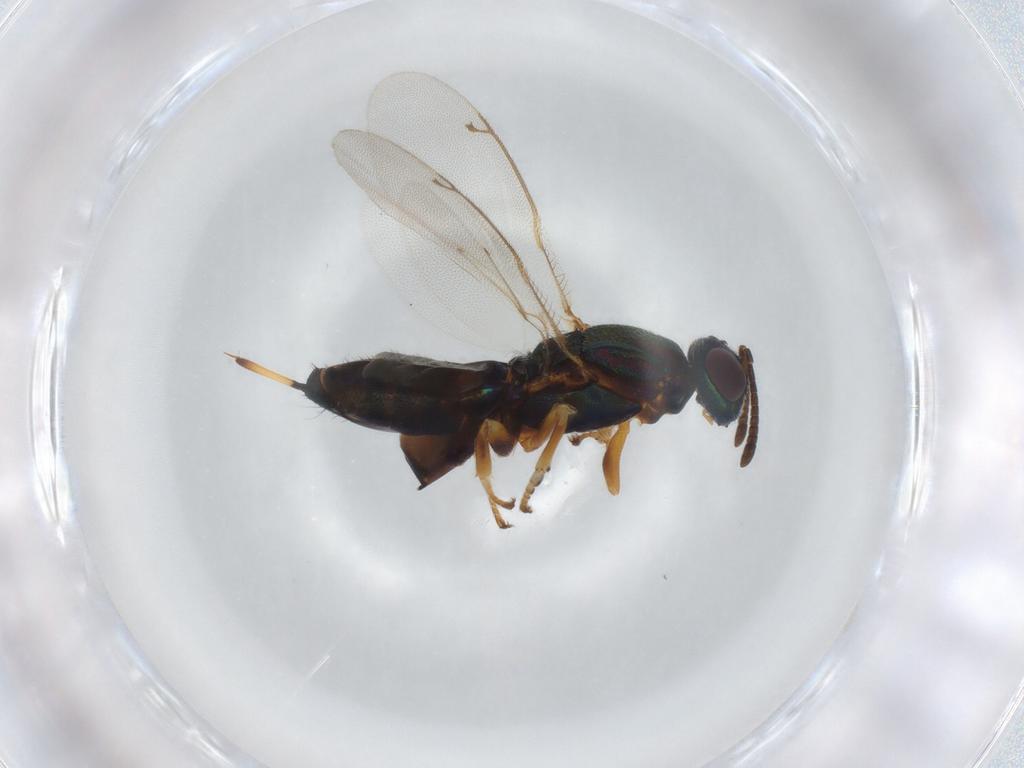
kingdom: Animalia
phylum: Arthropoda
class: Insecta
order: Hymenoptera
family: Eupelmidae
